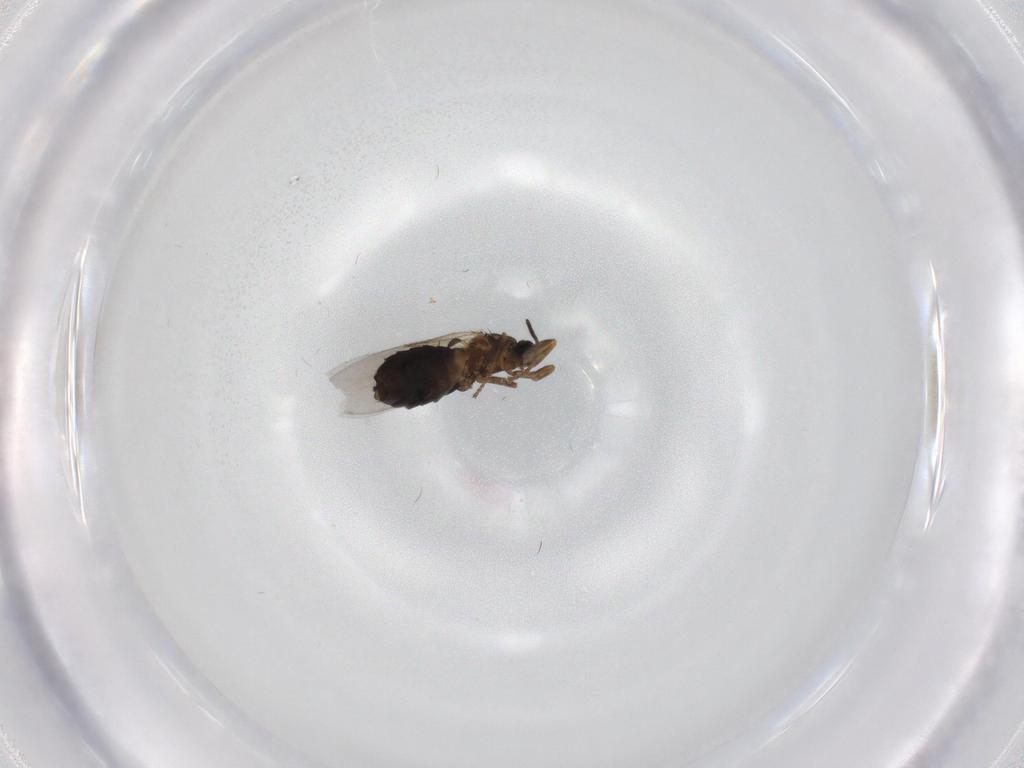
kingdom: Animalia
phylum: Arthropoda
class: Insecta
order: Diptera
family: Scatopsidae
